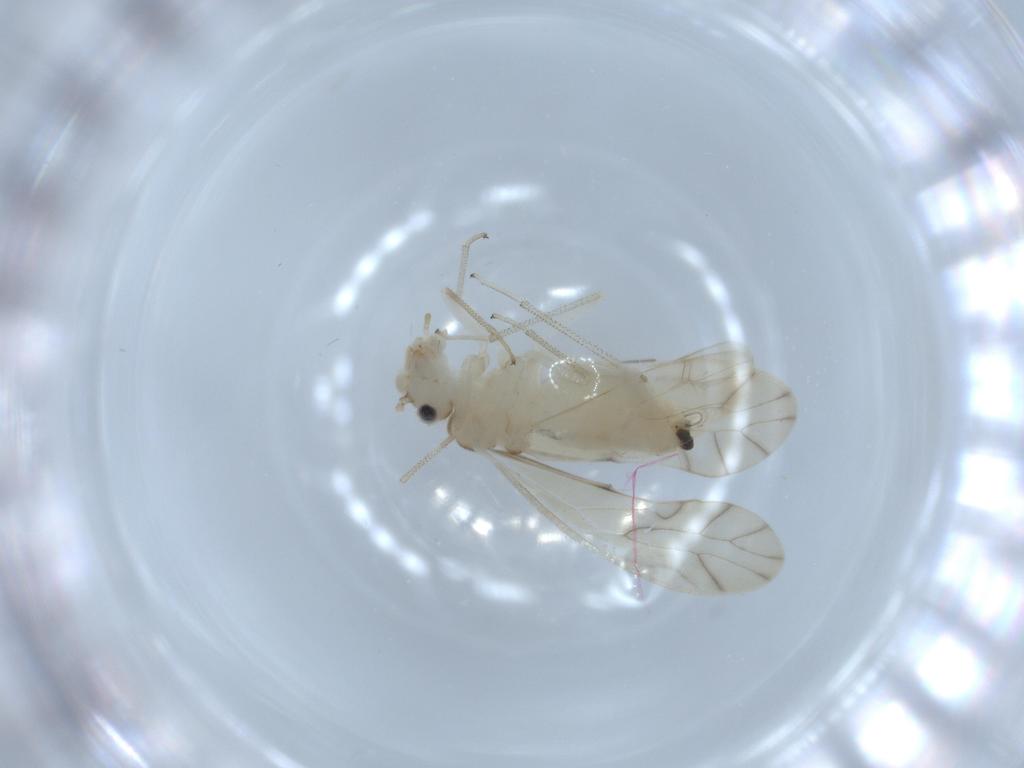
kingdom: Animalia
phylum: Arthropoda
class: Insecta
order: Psocodea
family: Caeciliusidae
